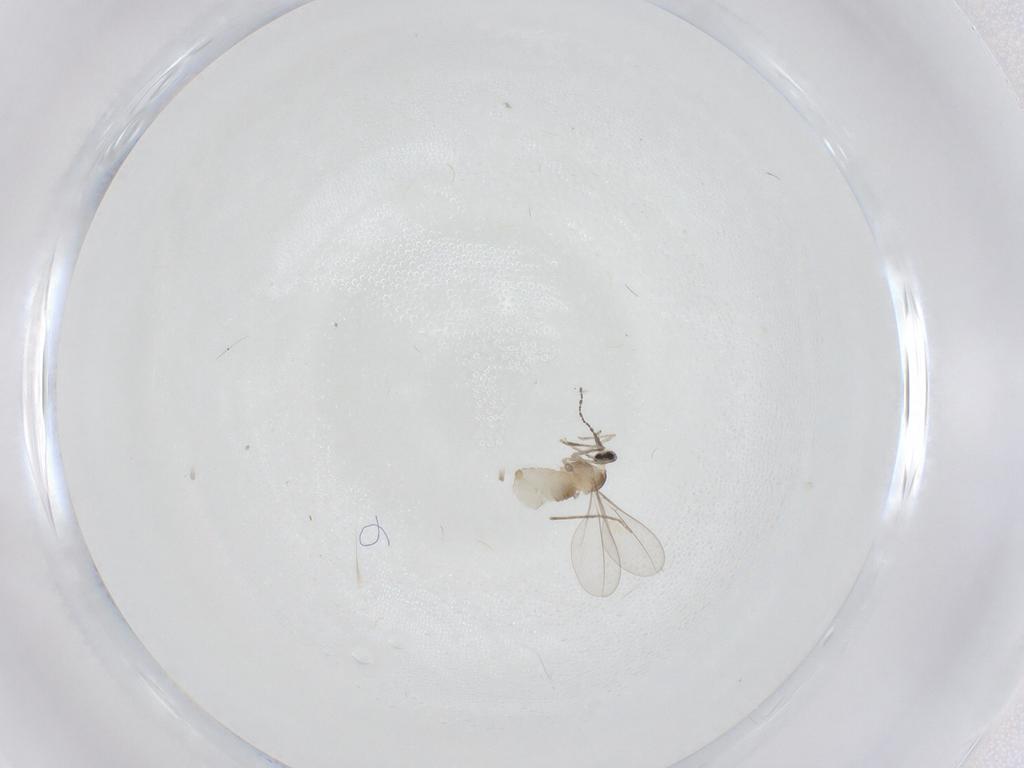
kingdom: Animalia
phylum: Arthropoda
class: Insecta
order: Diptera
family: Cecidomyiidae
